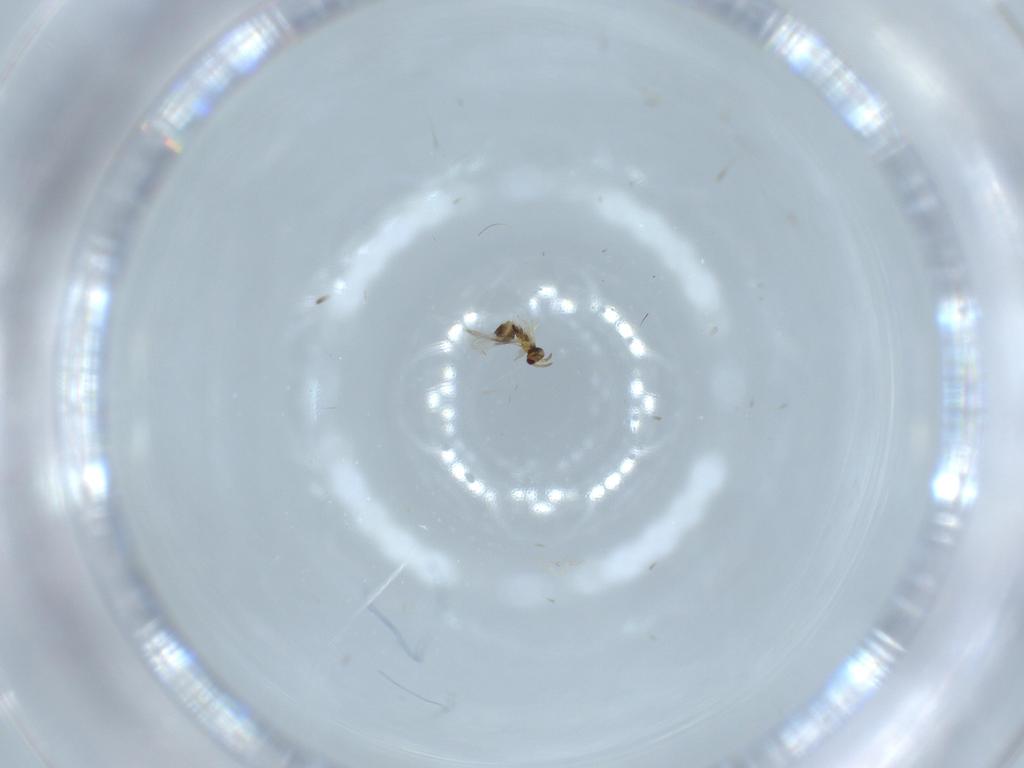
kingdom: Animalia
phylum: Arthropoda
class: Insecta
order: Hymenoptera
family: Aphelinidae
